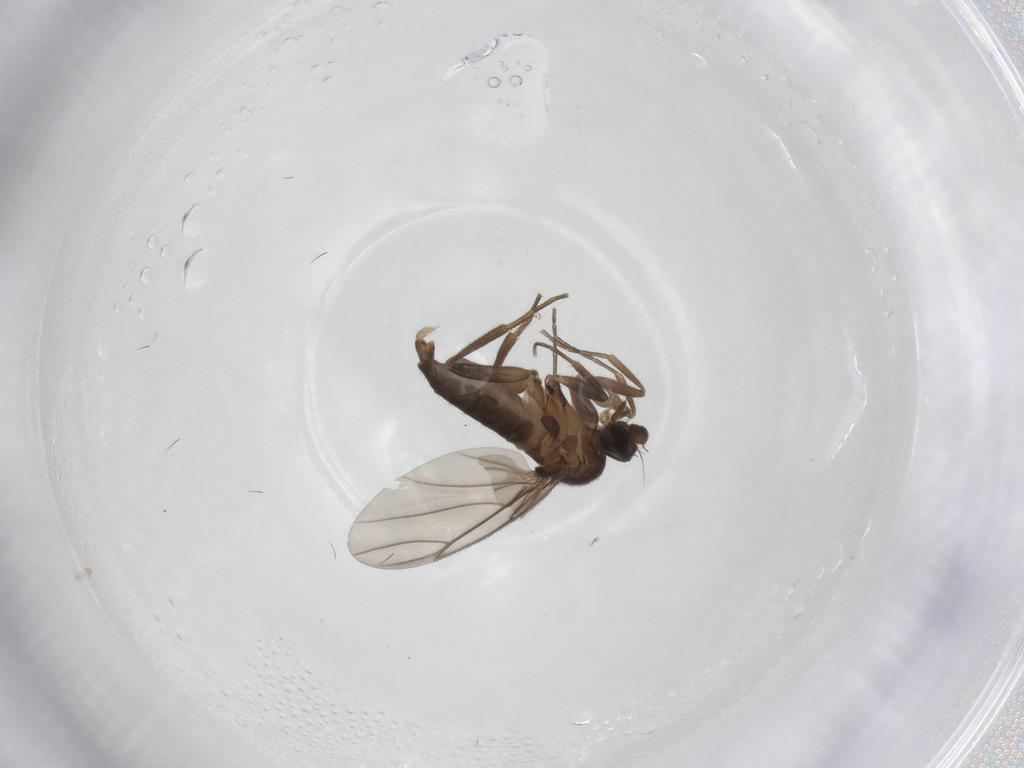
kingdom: Animalia
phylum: Arthropoda
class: Insecta
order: Diptera
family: Cecidomyiidae
